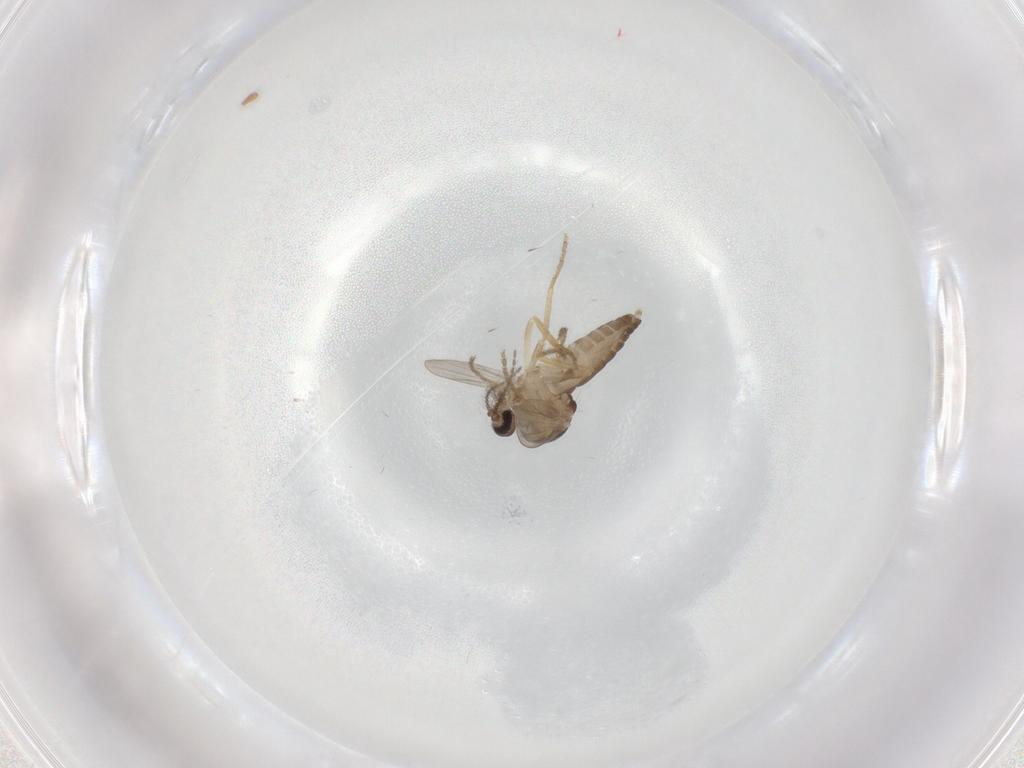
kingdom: Animalia
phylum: Arthropoda
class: Insecta
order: Diptera
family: Ceratopogonidae
